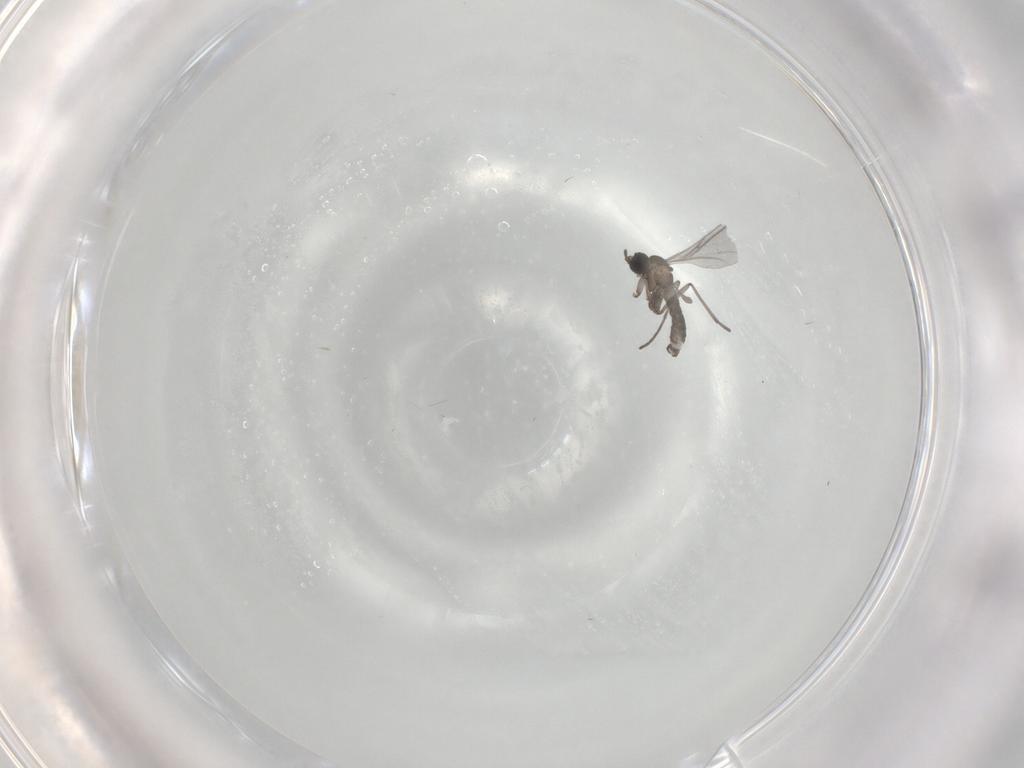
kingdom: Animalia
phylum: Arthropoda
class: Insecta
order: Diptera
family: Sciaridae
